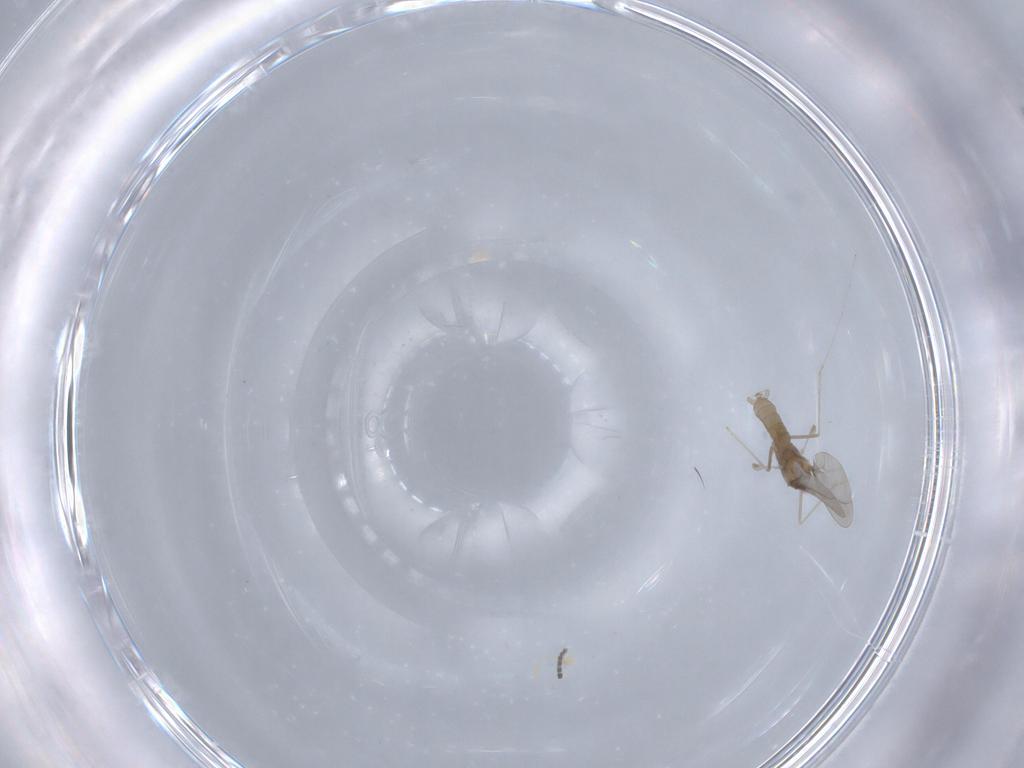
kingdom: Animalia
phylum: Arthropoda
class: Insecta
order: Diptera
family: Cecidomyiidae
